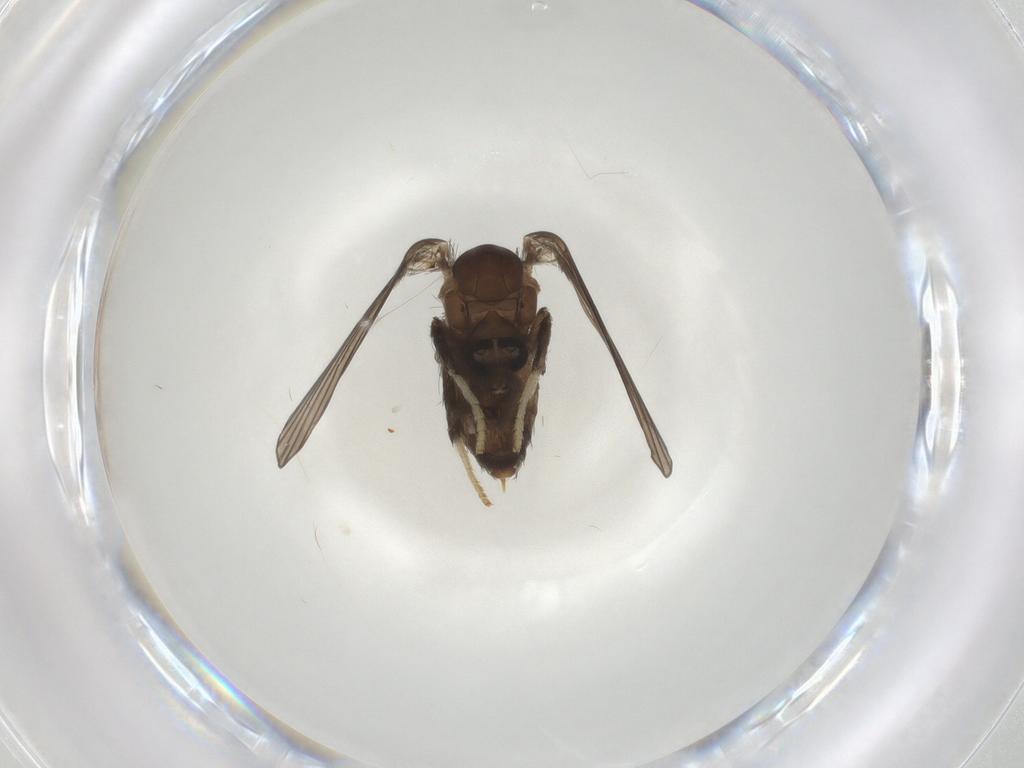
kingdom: Animalia
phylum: Arthropoda
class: Insecta
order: Diptera
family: Psychodidae
